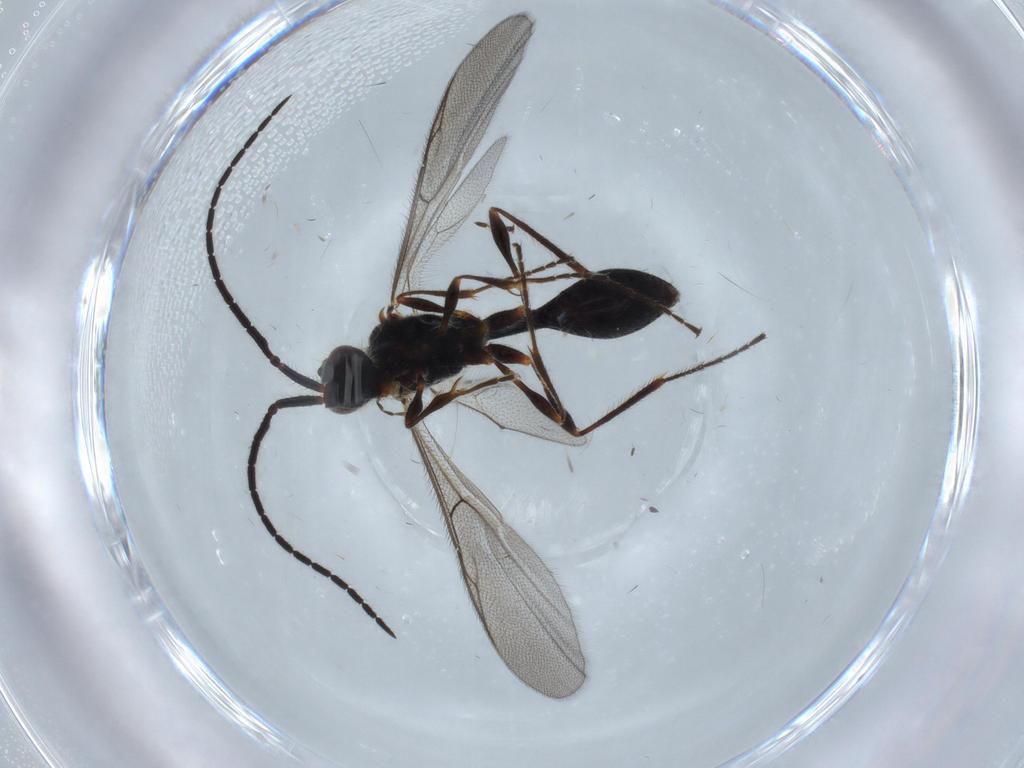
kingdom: Animalia
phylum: Arthropoda
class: Insecta
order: Hymenoptera
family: Diapriidae
